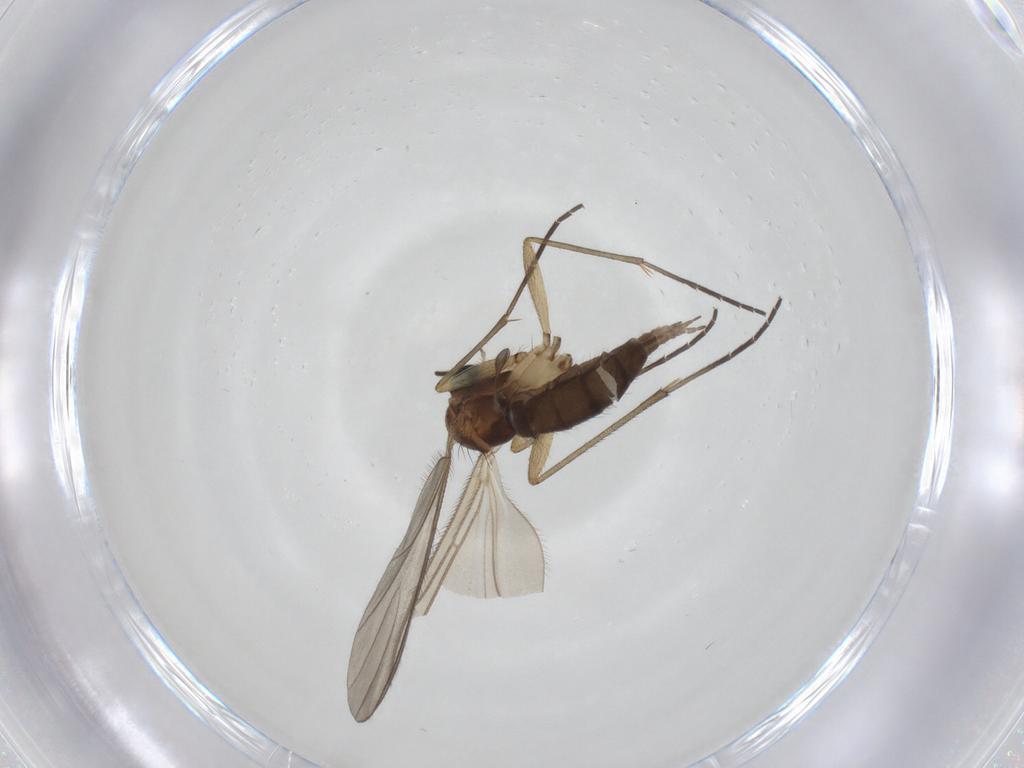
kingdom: Animalia
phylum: Arthropoda
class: Insecta
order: Diptera
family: Sciaridae
